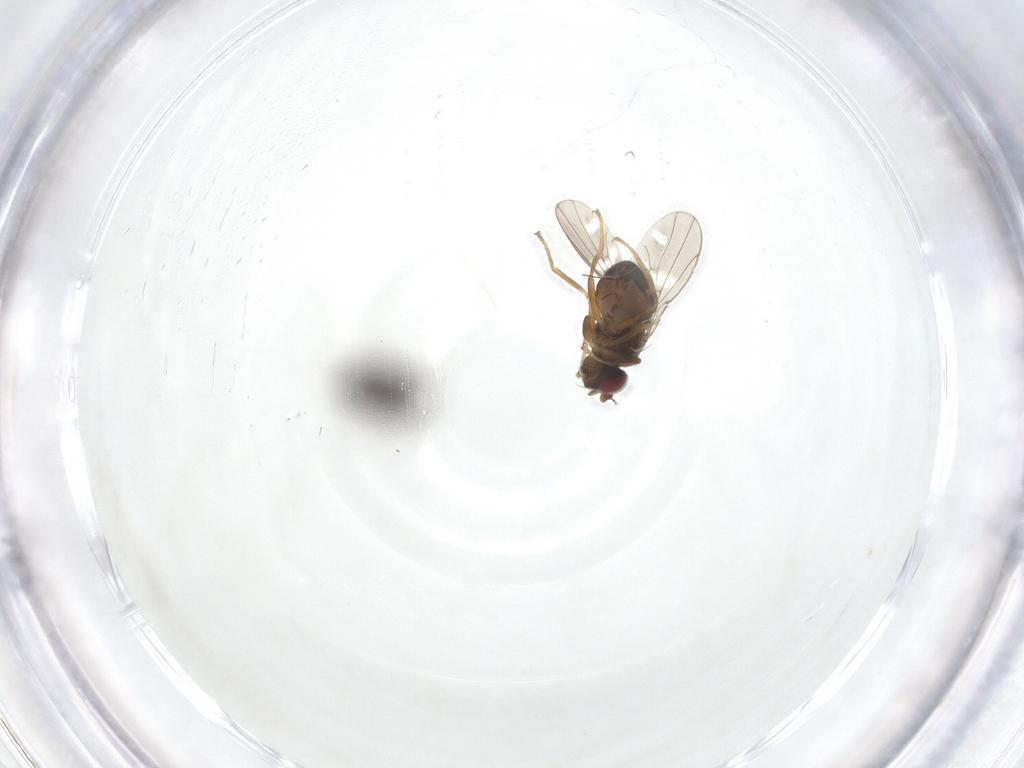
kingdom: Animalia
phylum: Arthropoda
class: Insecta
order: Diptera
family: Ephydridae
